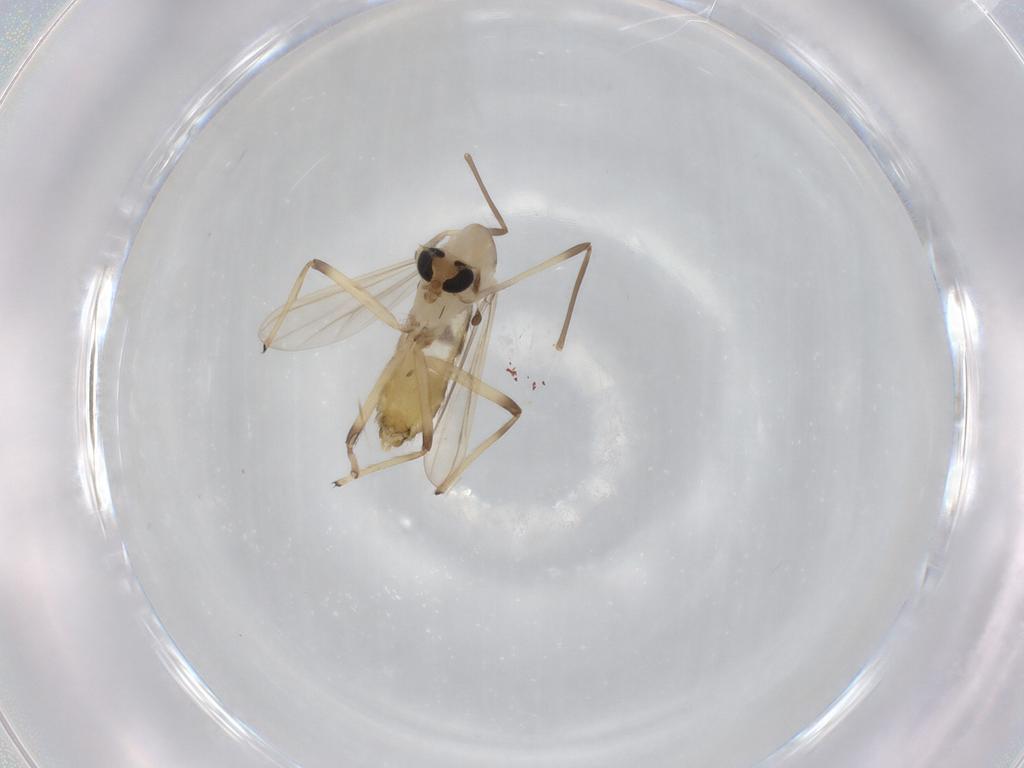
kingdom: Animalia
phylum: Arthropoda
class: Insecta
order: Diptera
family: Chironomidae
